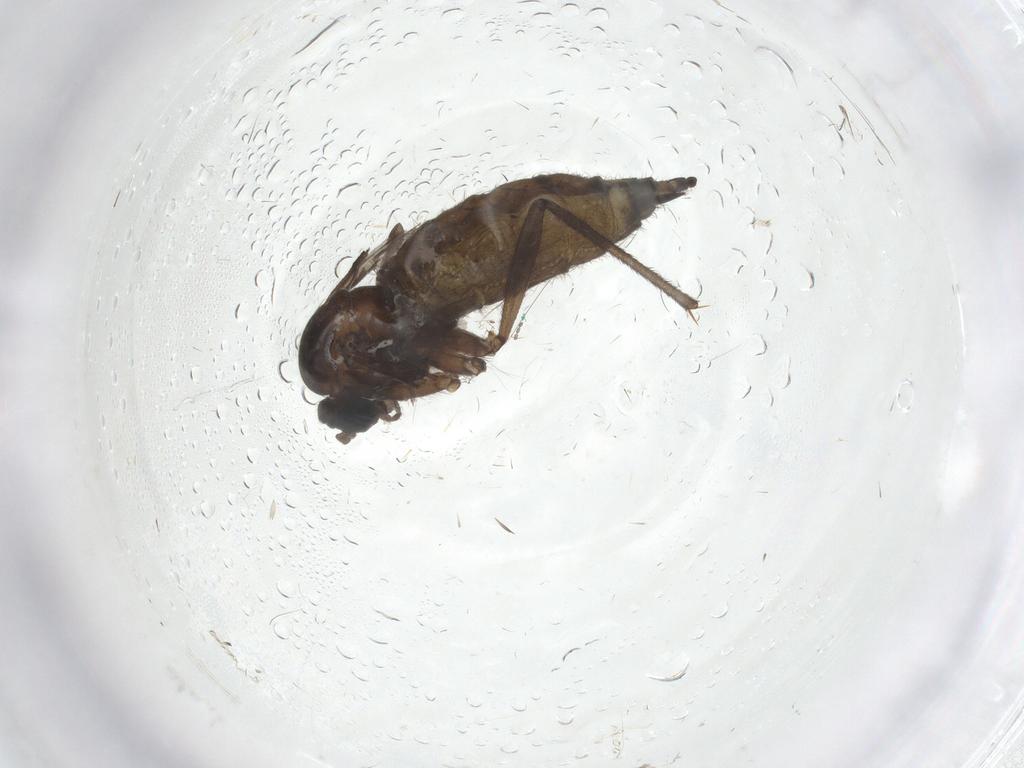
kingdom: Animalia
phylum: Arthropoda
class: Insecta
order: Diptera
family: Sciaridae
